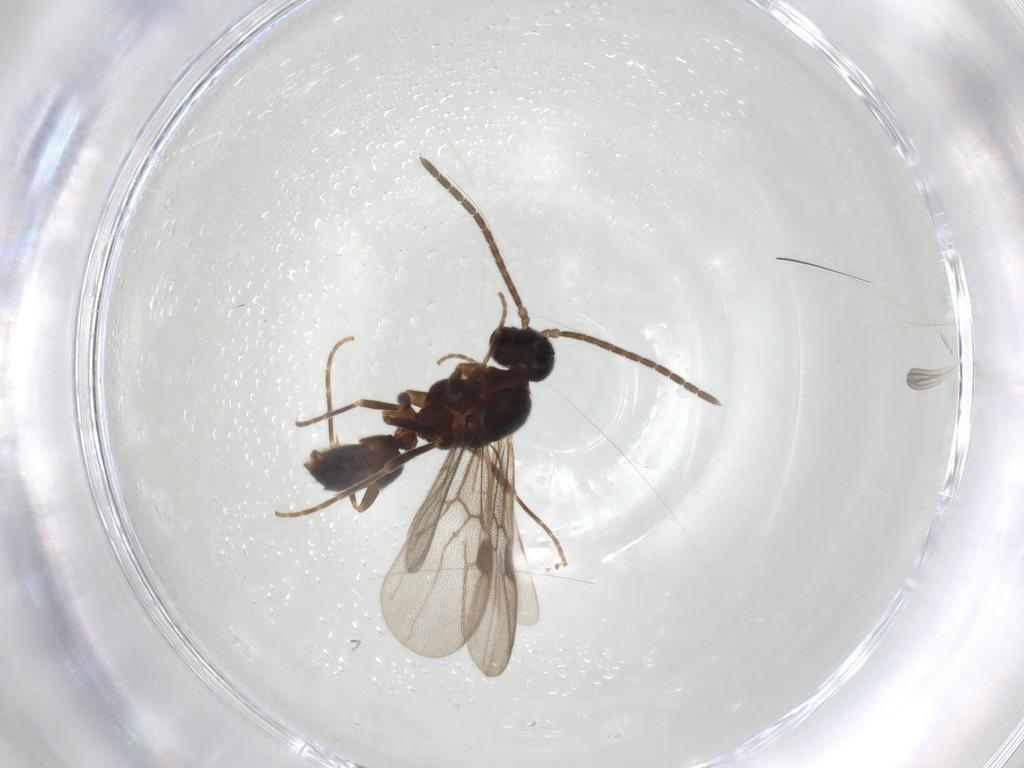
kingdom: Animalia
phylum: Arthropoda
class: Insecta
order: Hymenoptera
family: Formicidae
